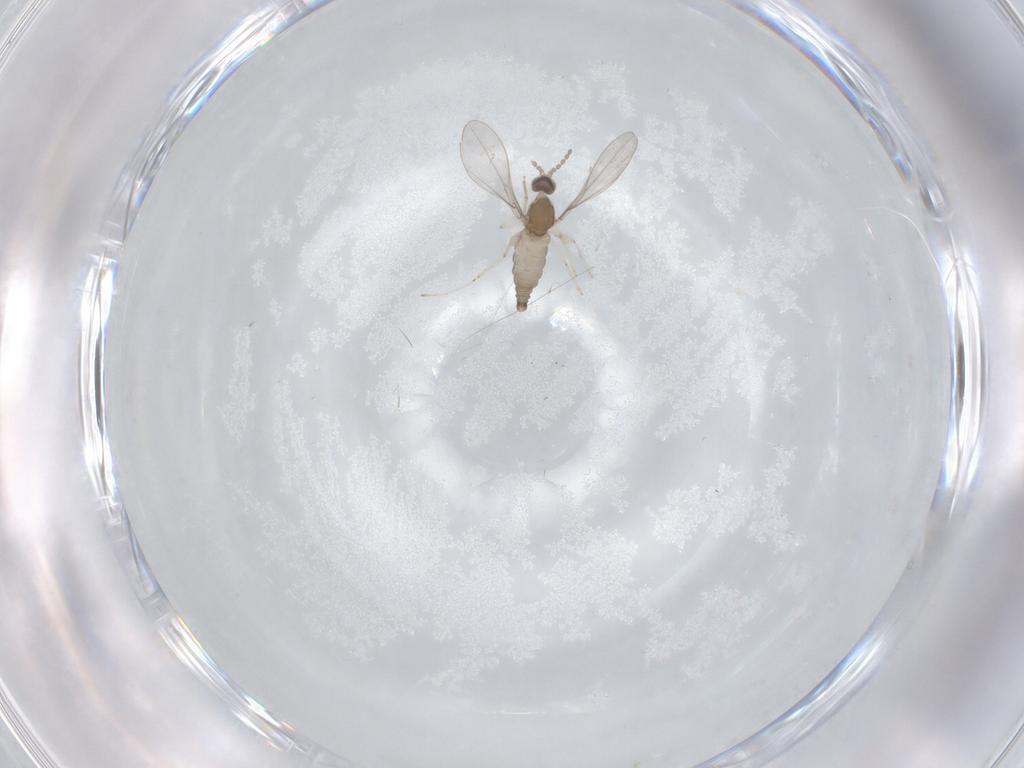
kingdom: Animalia
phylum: Arthropoda
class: Insecta
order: Diptera
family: Cecidomyiidae
